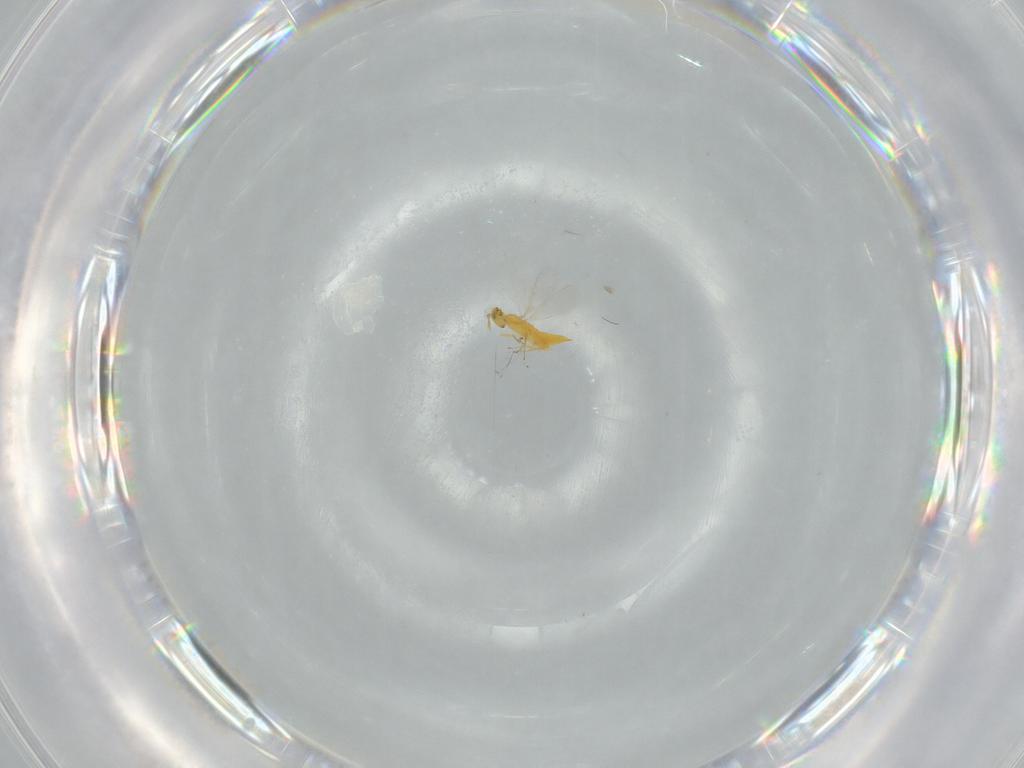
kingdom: Animalia
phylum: Arthropoda
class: Insecta
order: Hymenoptera
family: Aphelinidae
